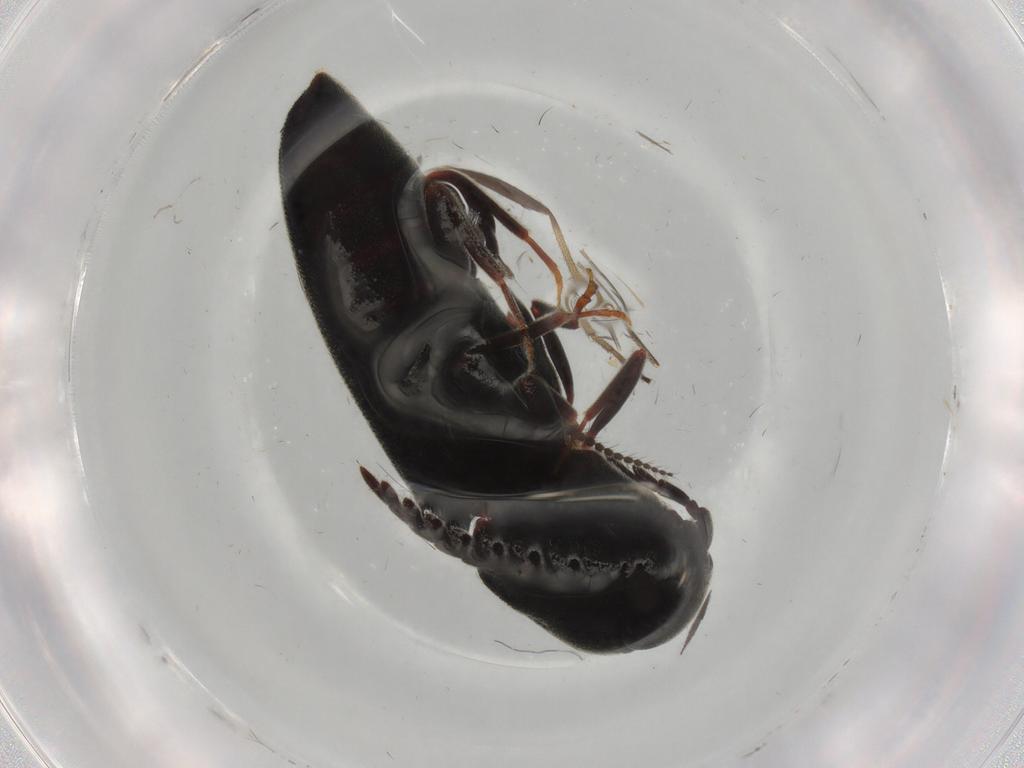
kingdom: Animalia
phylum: Arthropoda
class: Insecta
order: Coleoptera
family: Eucnemidae
